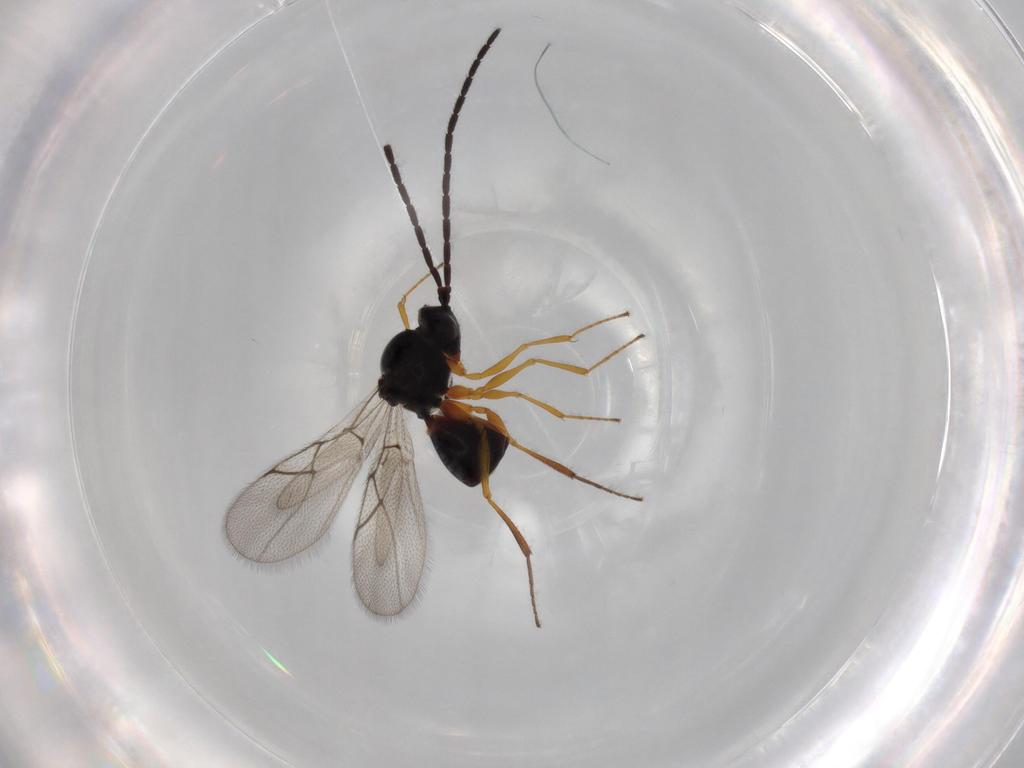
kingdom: Animalia
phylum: Arthropoda
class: Insecta
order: Hymenoptera
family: Figitidae
